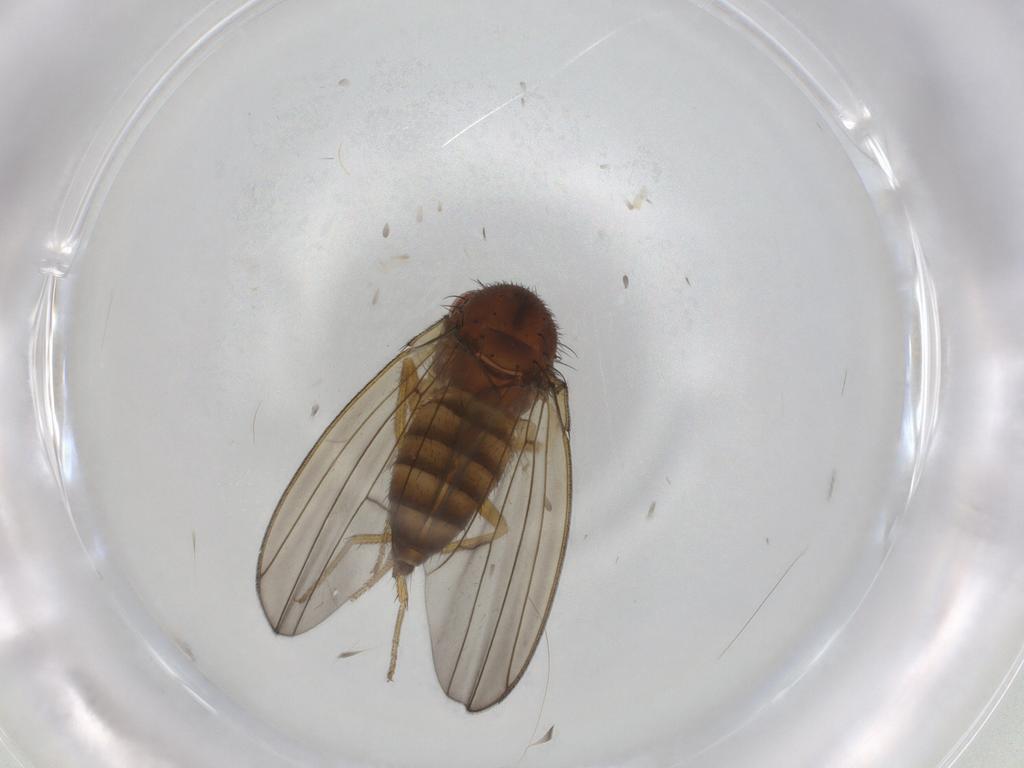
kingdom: Animalia
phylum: Arthropoda
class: Insecta
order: Diptera
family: Drosophilidae
